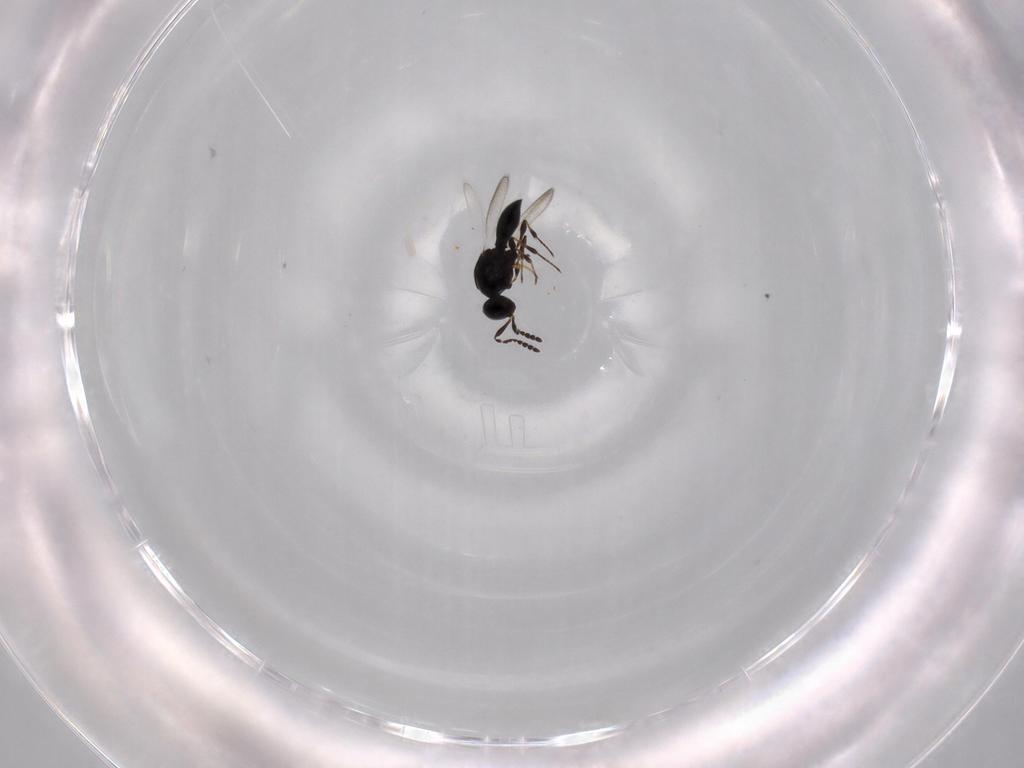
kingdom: Animalia
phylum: Arthropoda
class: Insecta
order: Hymenoptera
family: Platygastridae
